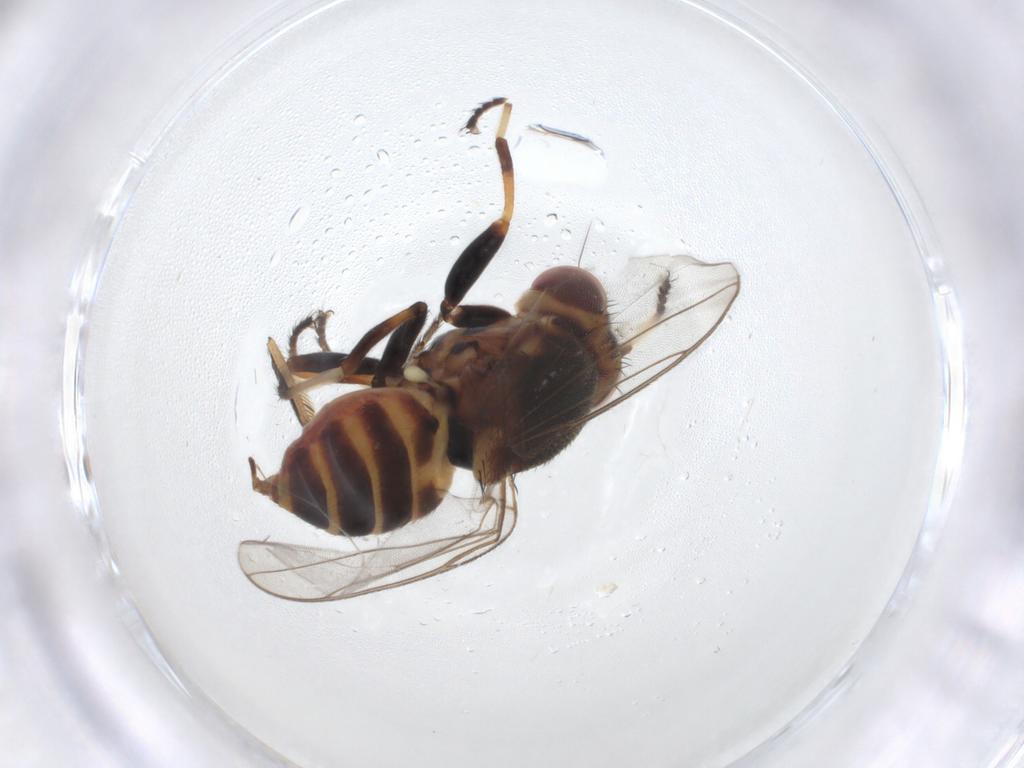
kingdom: Animalia
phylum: Arthropoda
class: Insecta
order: Diptera
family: Chloropidae
